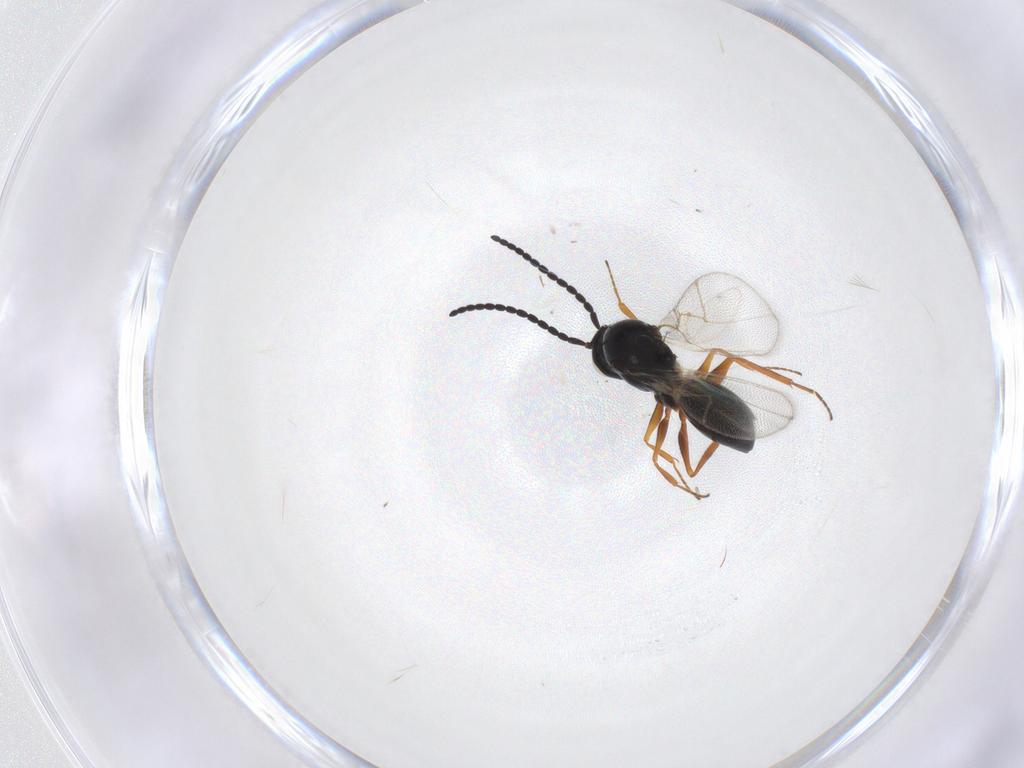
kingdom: Animalia
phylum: Arthropoda
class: Insecta
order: Hymenoptera
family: Figitidae
